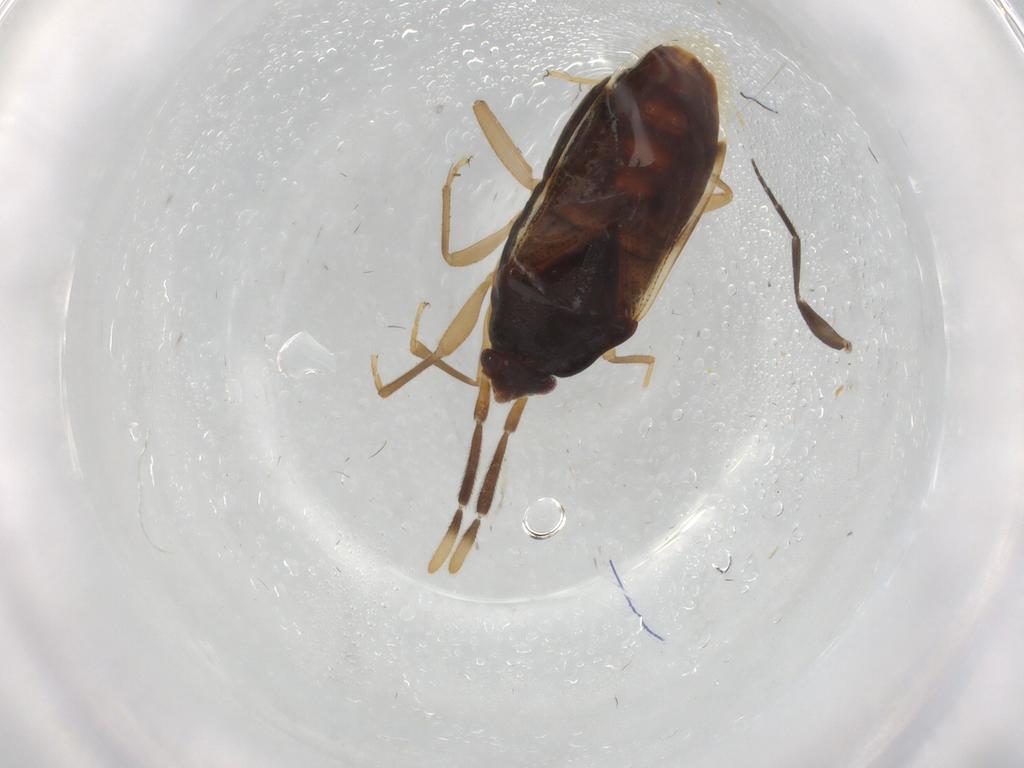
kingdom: Animalia
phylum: Arthropoda
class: Insecta
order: Hemiptera
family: Rhyparochromidae
